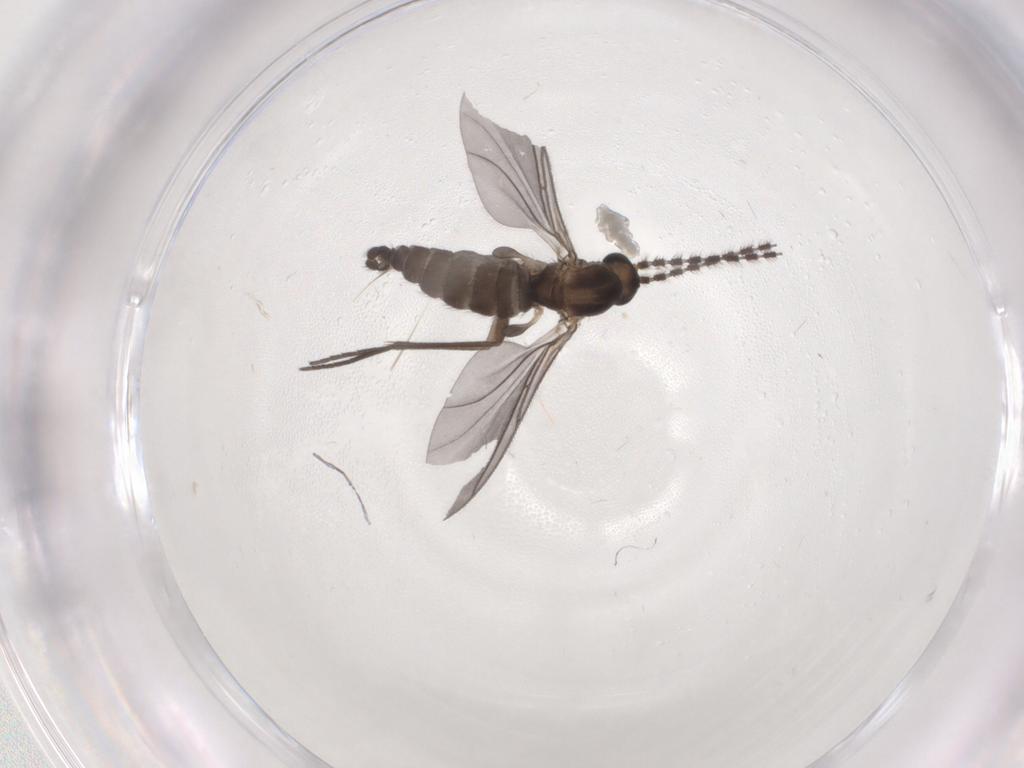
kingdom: Animalia
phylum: Arthropoda
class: Insecta
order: Diptera
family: Sciaridae
